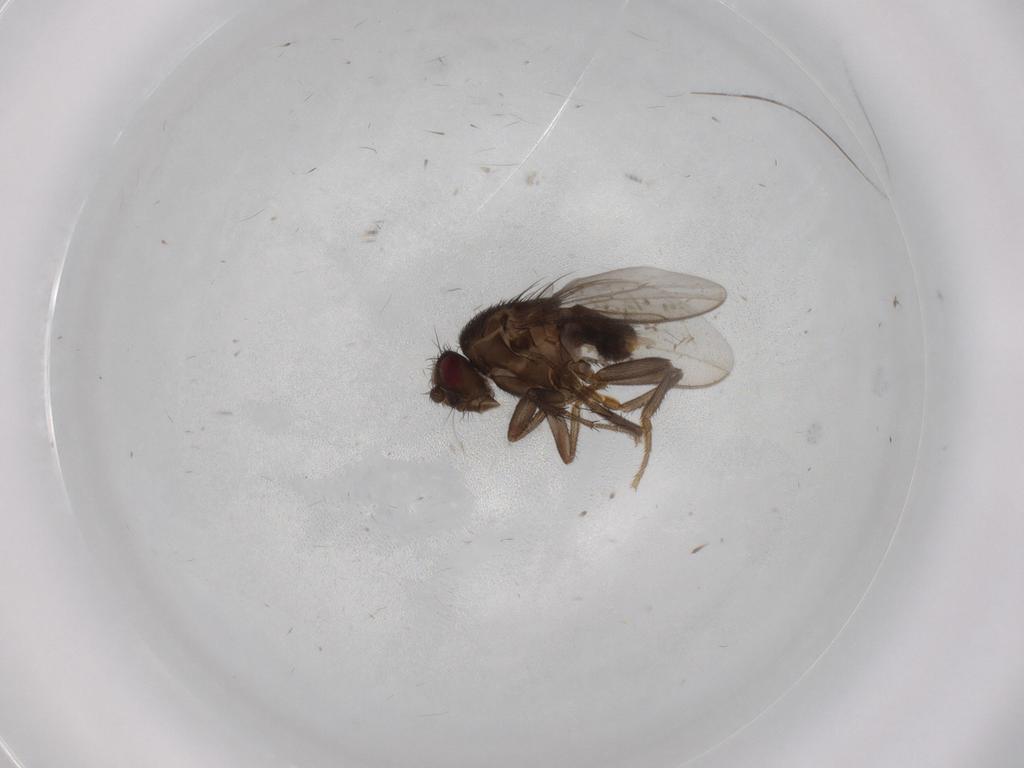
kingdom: Animalia
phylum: Arthropoda
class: Insecta
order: Diptera
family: Sphaeroceridae
